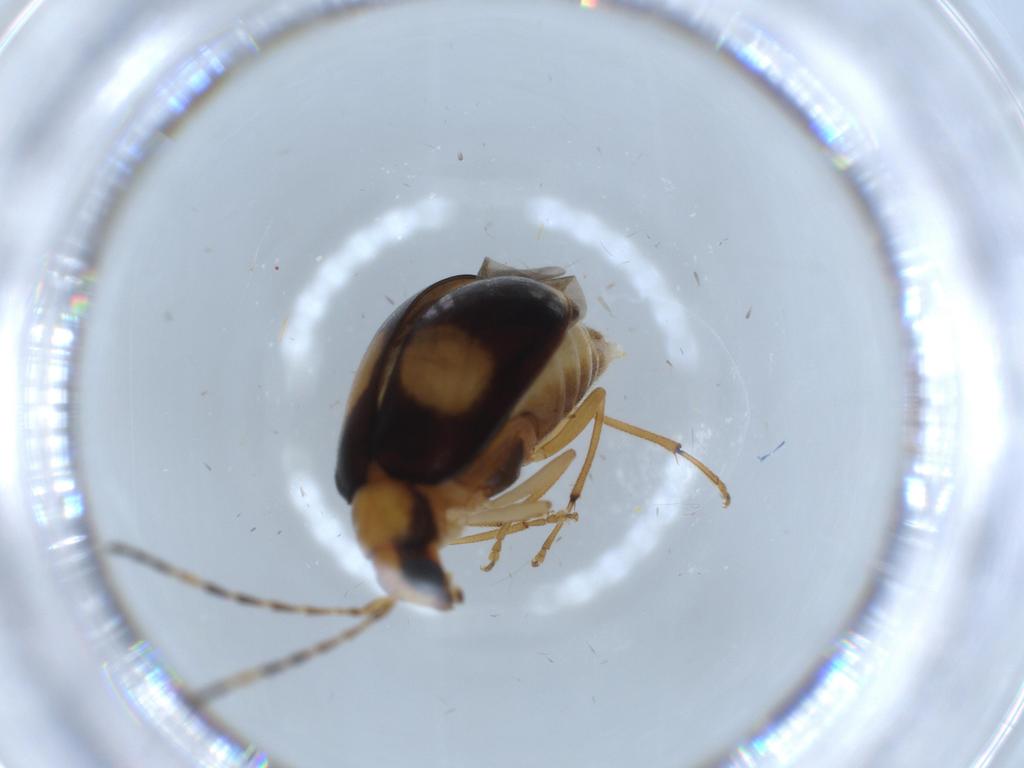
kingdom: Animalia
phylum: Arthropoda
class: Insecta
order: Coleoptera
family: Chrysomelidae
